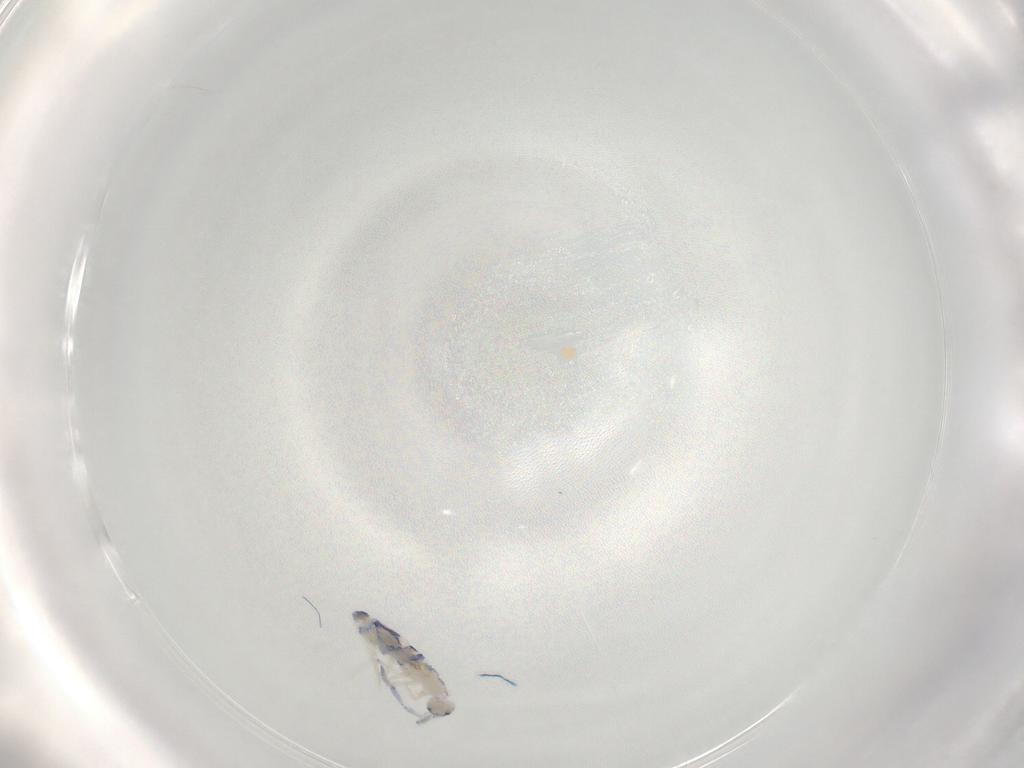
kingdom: Animalia
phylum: Arthropoda
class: Collembola
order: Entomobryomorpha
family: Entomobryidae
